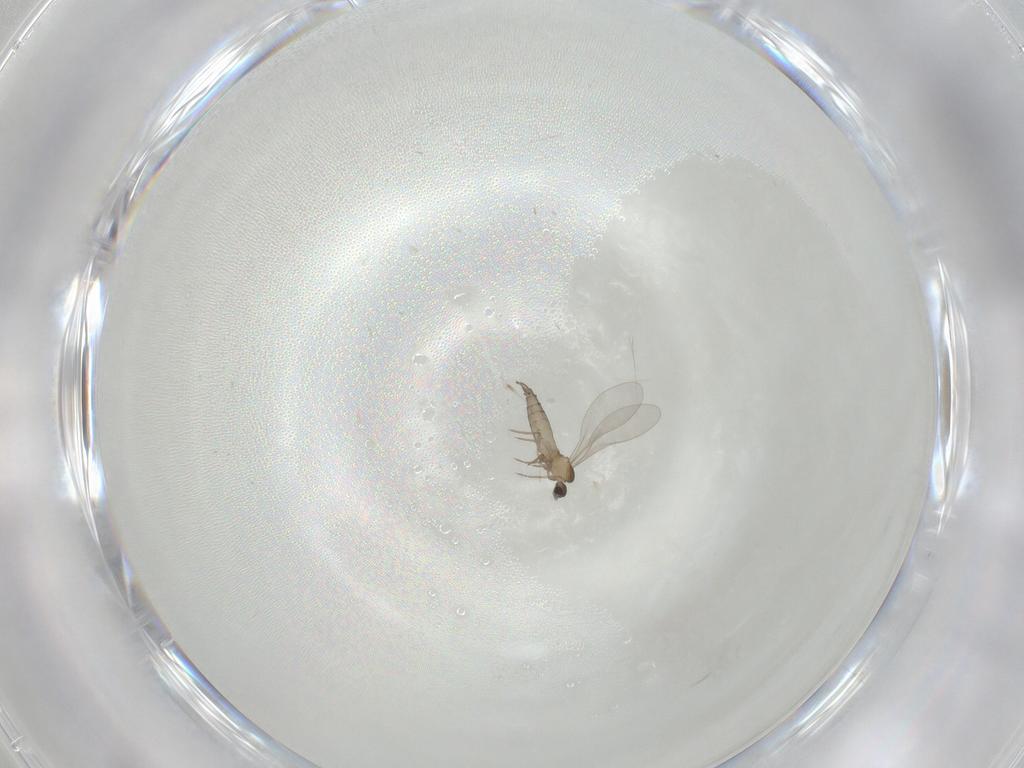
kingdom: Animalia
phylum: Arthropoda
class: Insecta
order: Diptera
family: Cecidomyiidae
